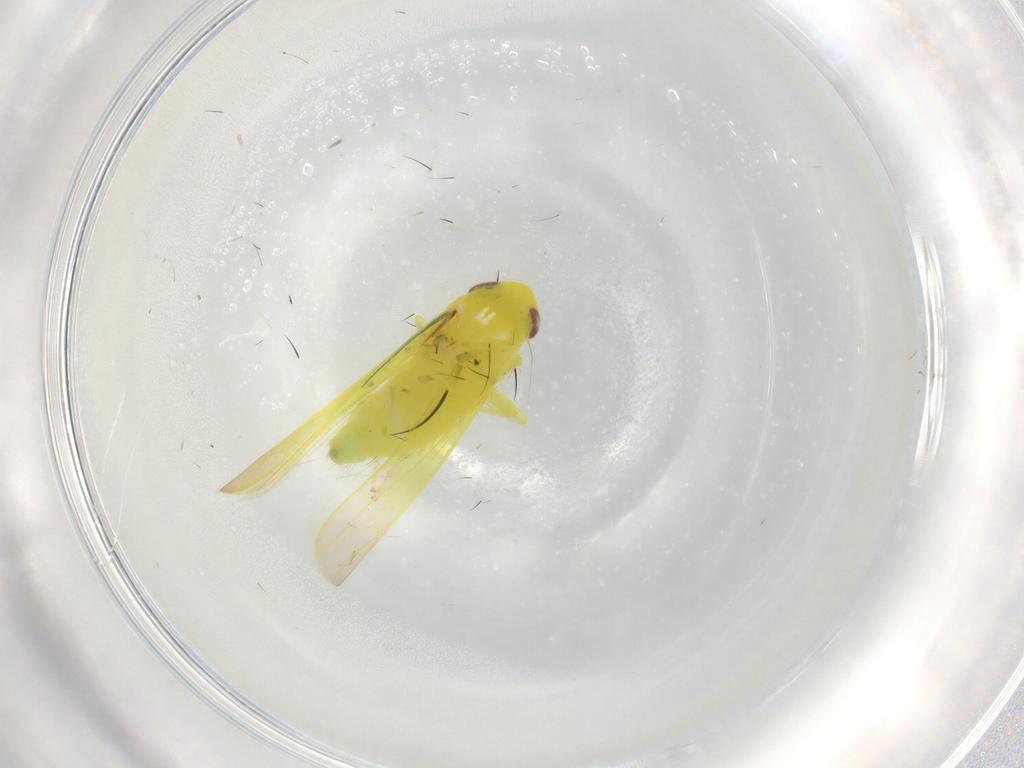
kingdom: Animalia
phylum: Arthropoda
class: Insecta
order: Hemiptera
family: Cicadellidae
